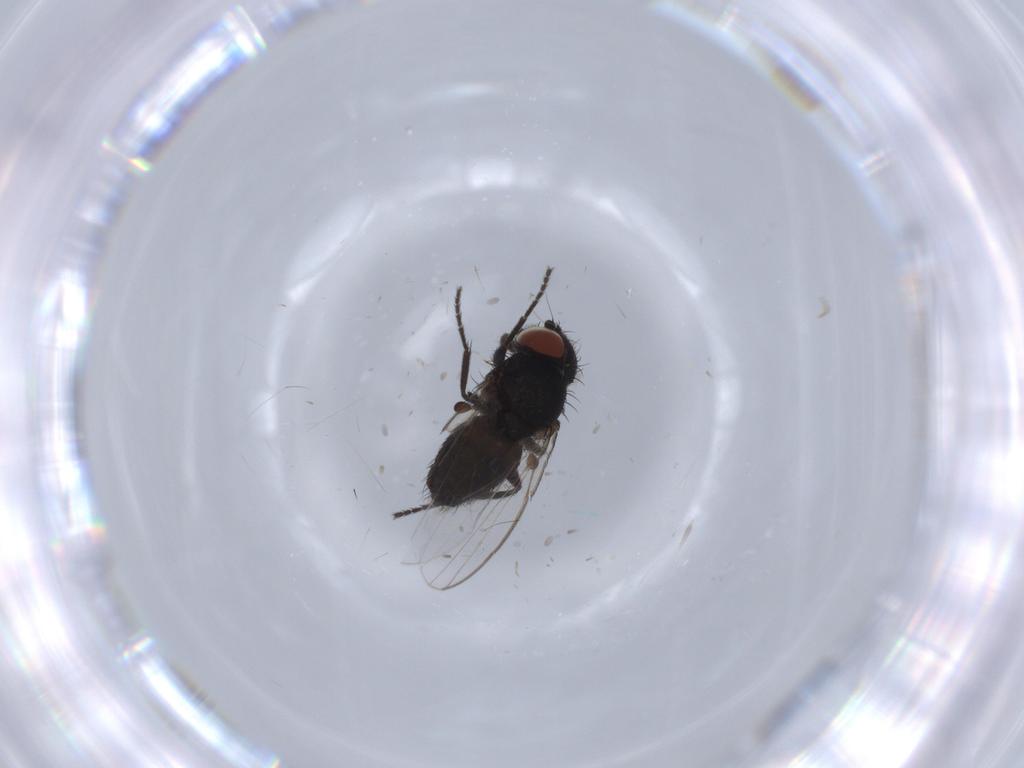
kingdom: Animalia
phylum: Arthropoda
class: Insecta
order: Diptera
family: Milichiidae
